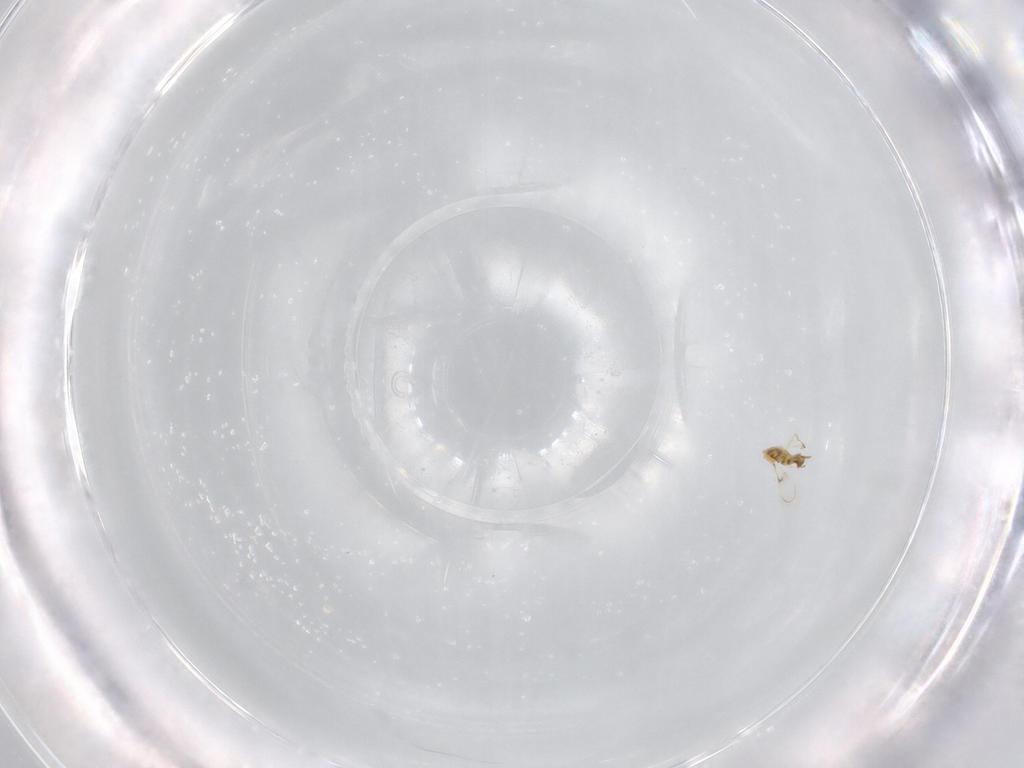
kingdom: Animalia
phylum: Arthropoda
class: Insecta
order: Hymenoptera
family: Trichogrammatidae
